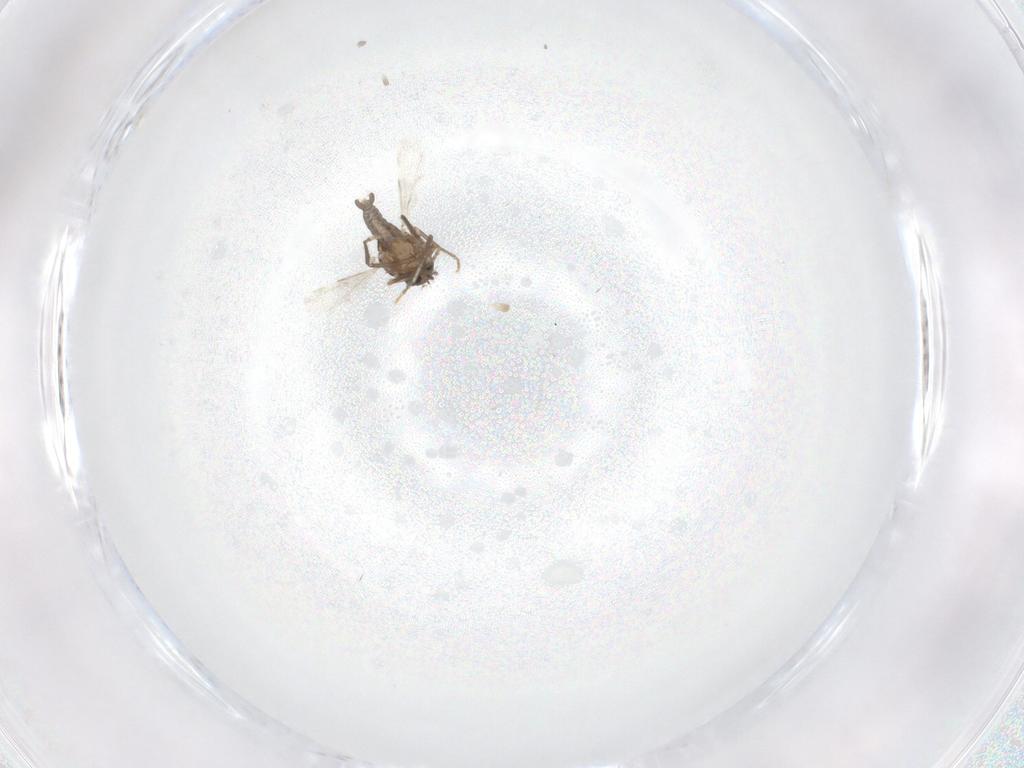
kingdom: Animalia
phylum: Arthropoda
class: Insecta
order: Diptera
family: Ceratopogonidae
